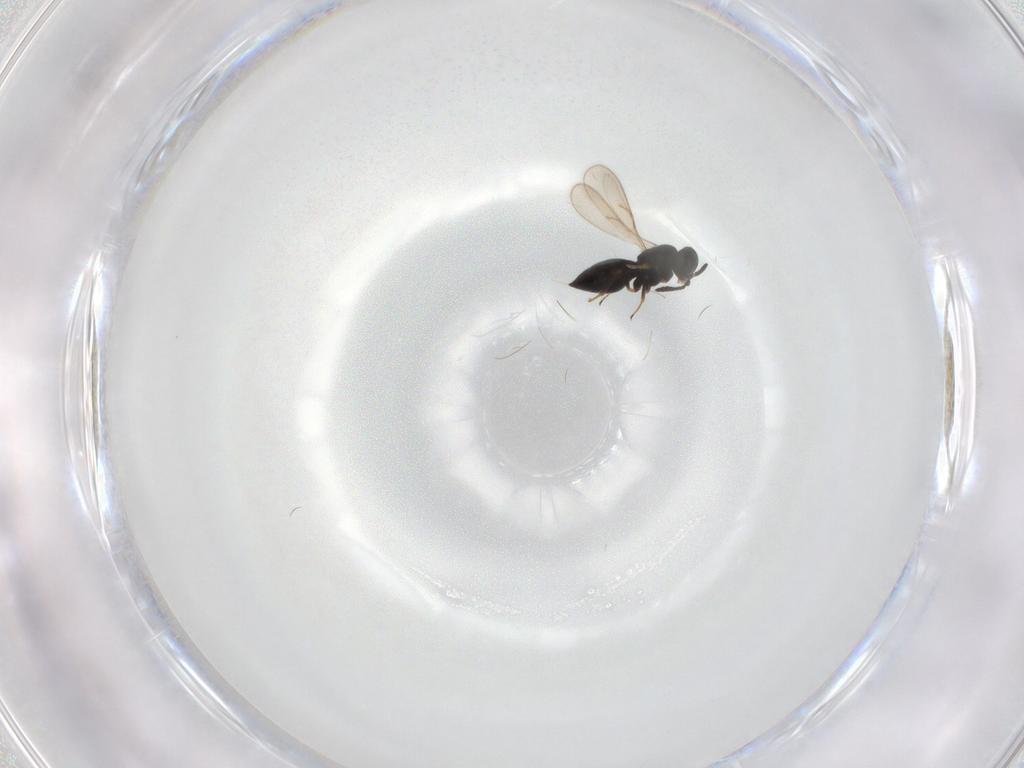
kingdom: Animalia
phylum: Arthropoda
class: Insecta
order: Hymenoptera
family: Scelionidae
